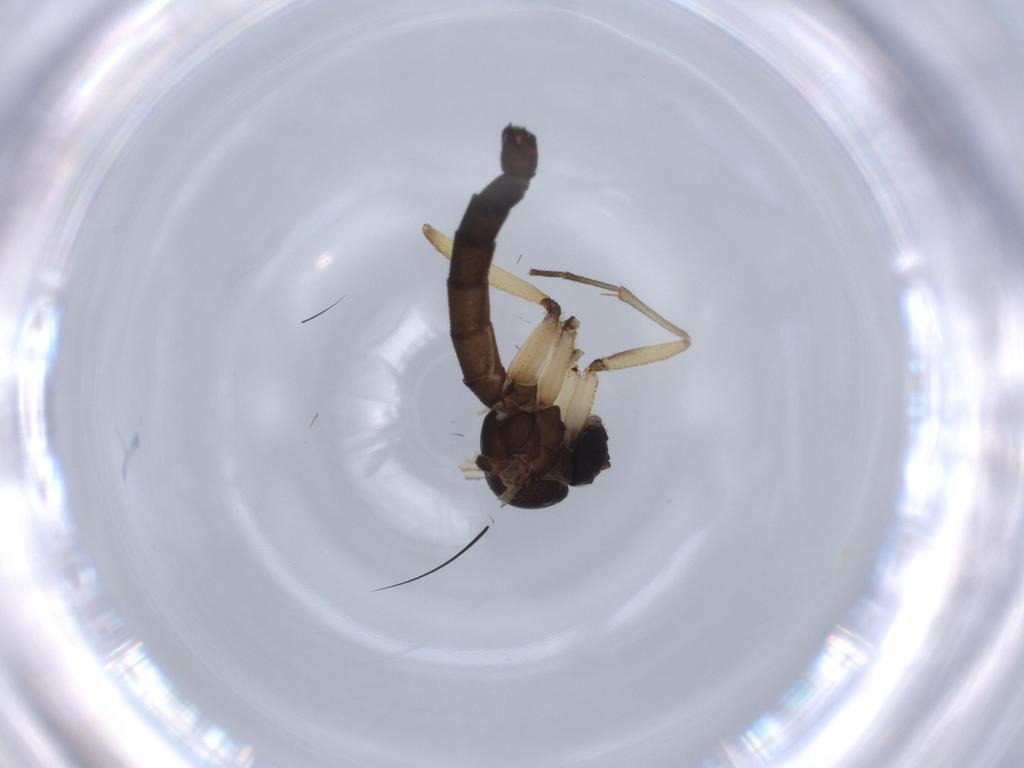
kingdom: Animalia
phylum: Arthropoda
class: Insecta
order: Diptera
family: Mycetophilidae
